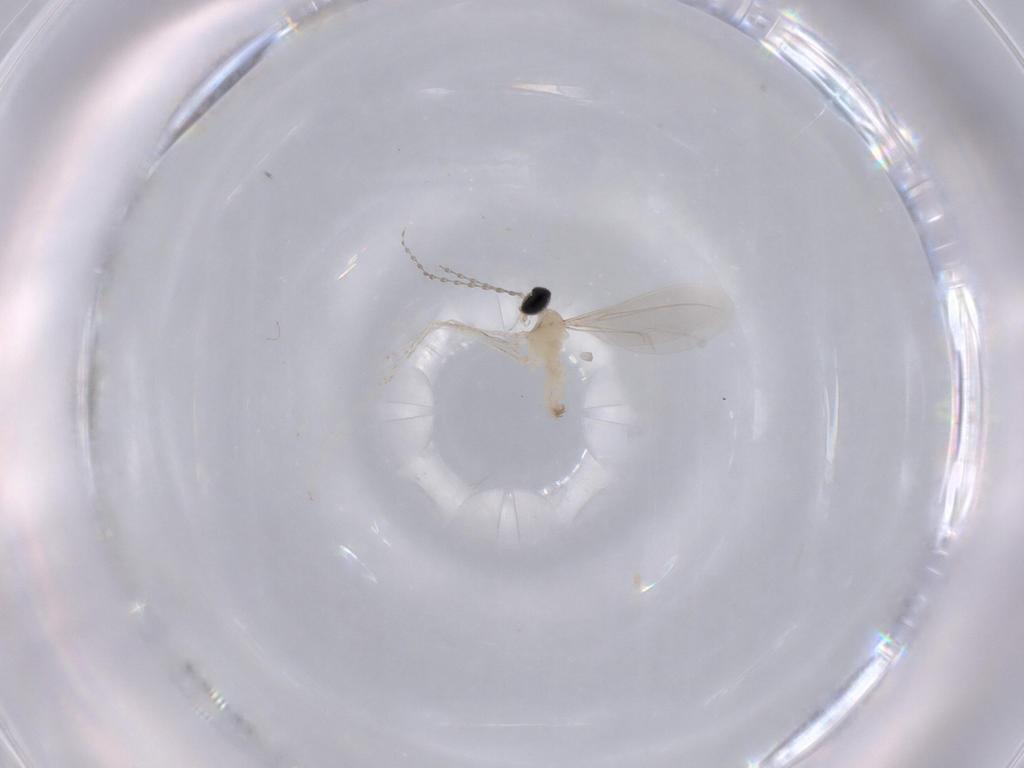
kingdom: Animalia
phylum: Arthropoda
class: Insecta
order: Diptera
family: Cecidomyiidae
